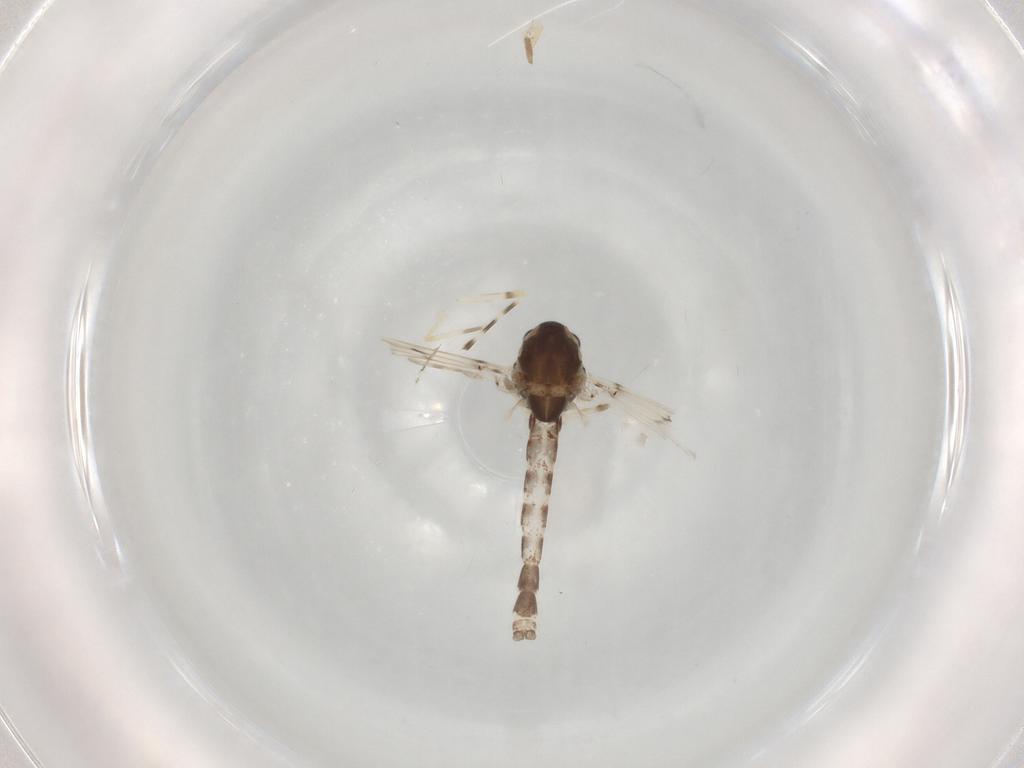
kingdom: Animalia
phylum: Arthropoda
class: Insecta
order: Diptera
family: Chironomidae
